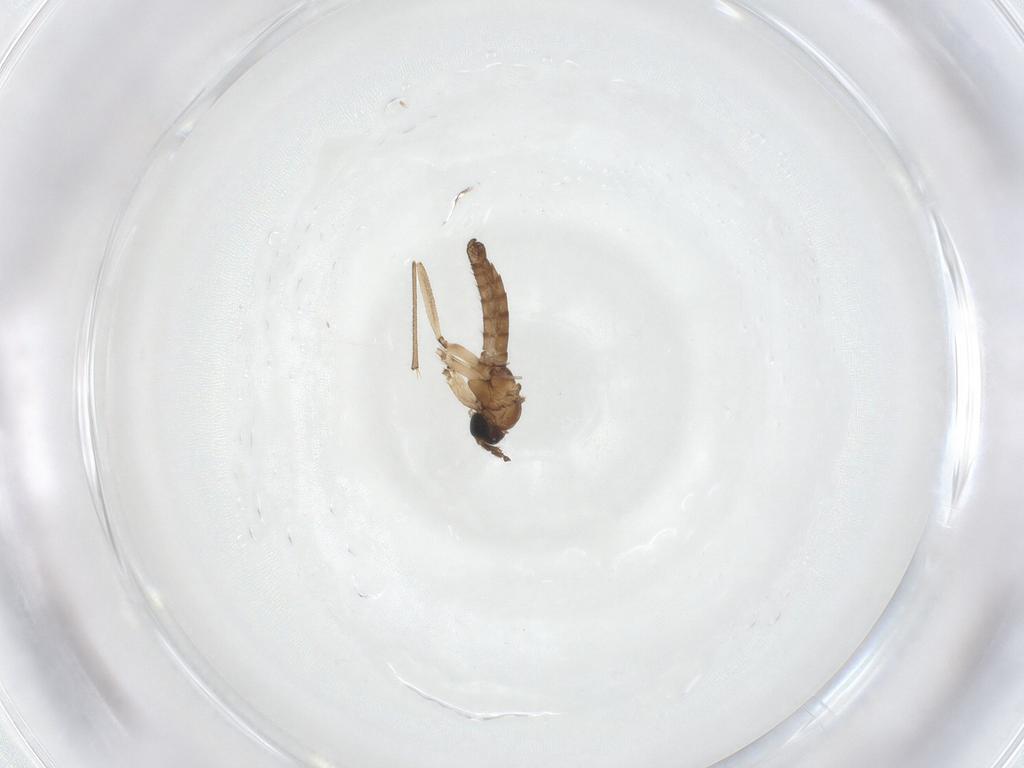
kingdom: Animalia
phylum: Arthropoda
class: Insecta
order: Diptera
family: Sciaridae
